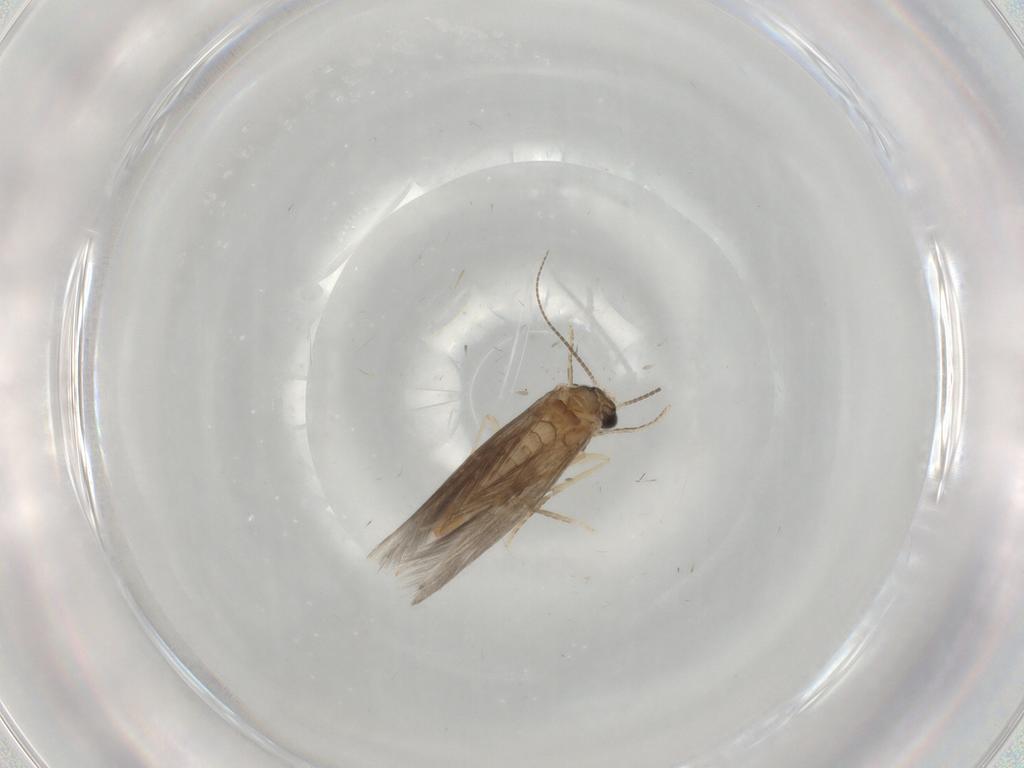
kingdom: Animalia
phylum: Arthropoda
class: Insecta
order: Trichoptera
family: Hydroptilidae
